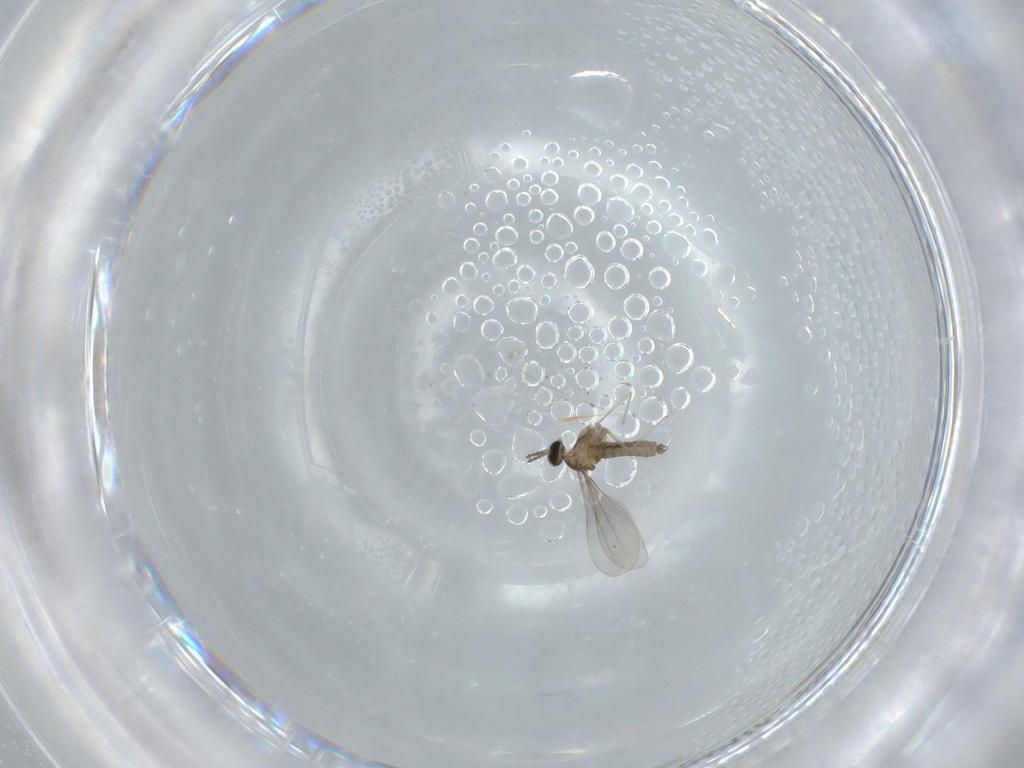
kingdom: Animalia
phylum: Arthropoda
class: Insecta
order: Diptera
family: Cecidomyiidae
